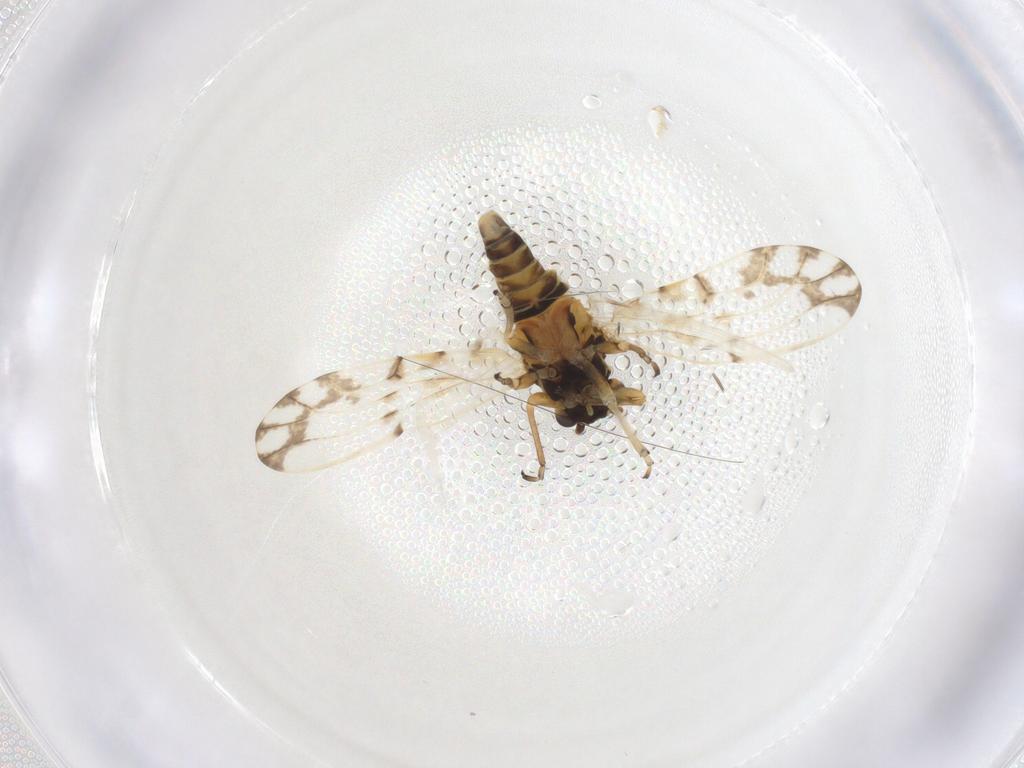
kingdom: Animalia
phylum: Arthropoda
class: Insecta
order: Hemiptera
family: Psylloidea_incertae_sedis
